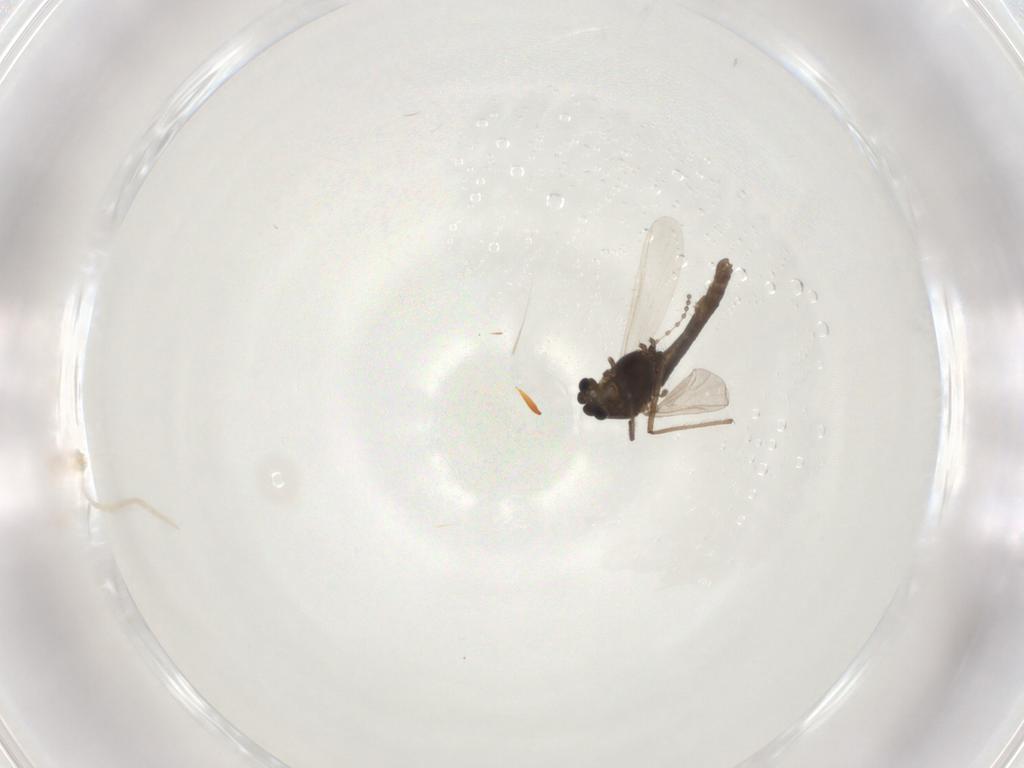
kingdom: Animalia
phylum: Arthropoda
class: Insecta
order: Diptera
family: Chironomidae
